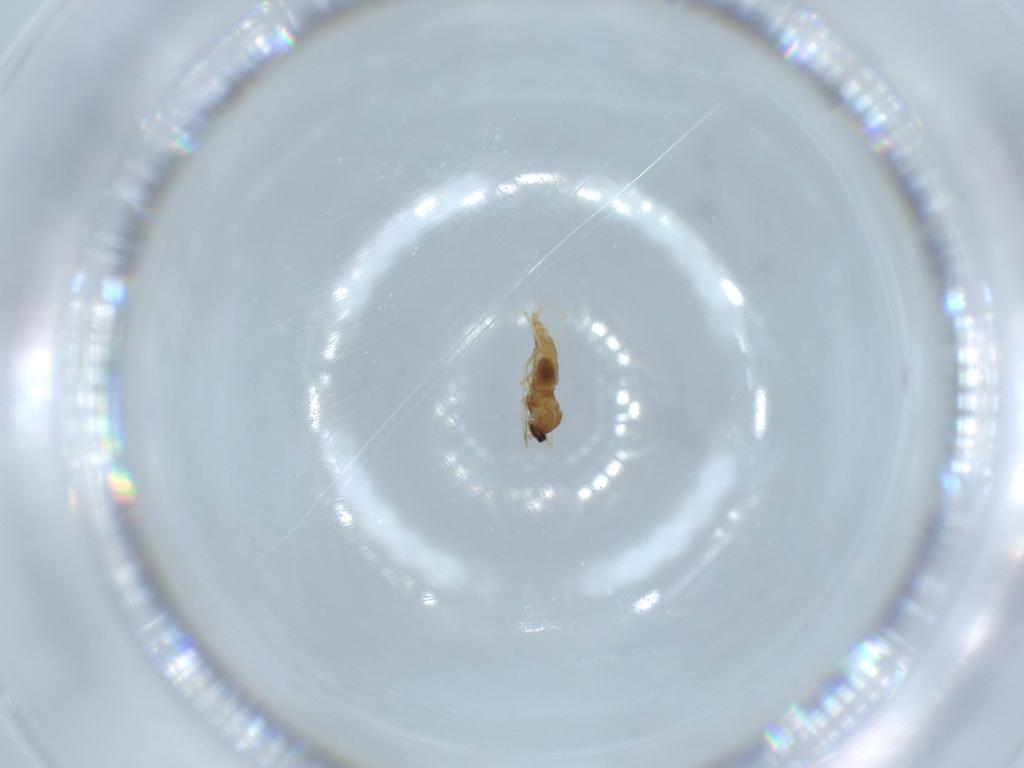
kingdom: Animalia
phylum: Arthropoda
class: Insecta
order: Diptera
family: Cecidomyiidae
